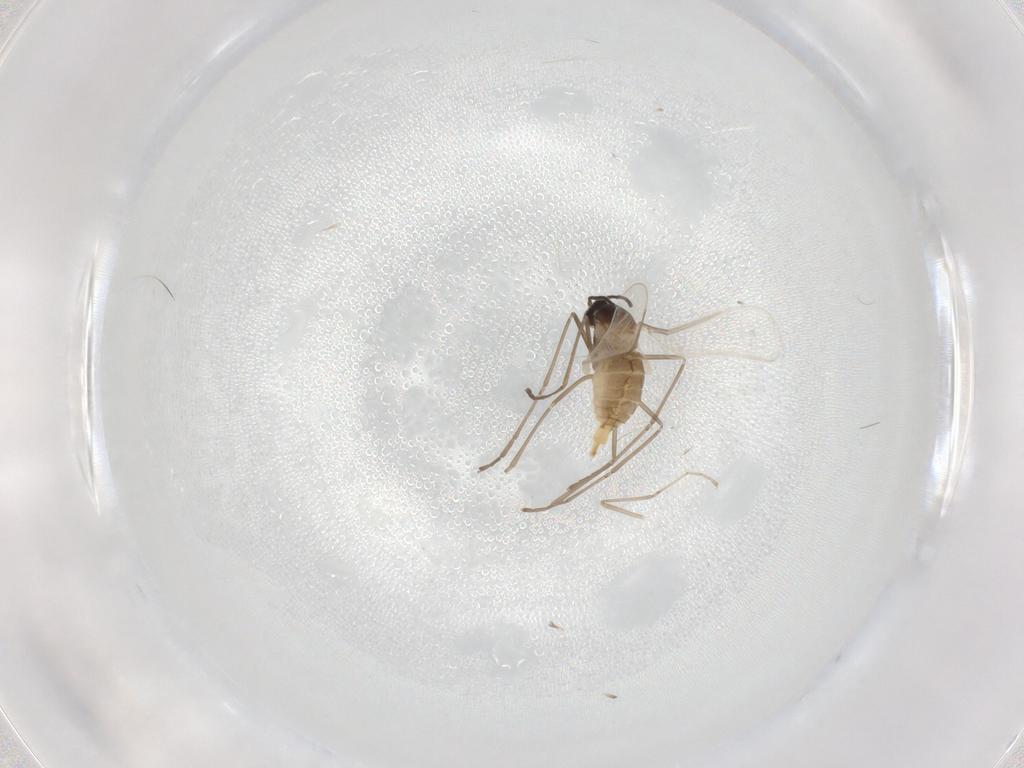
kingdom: Animalia
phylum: Arthropoda
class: Insecta
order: Diptera
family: Cecidomyiidae
